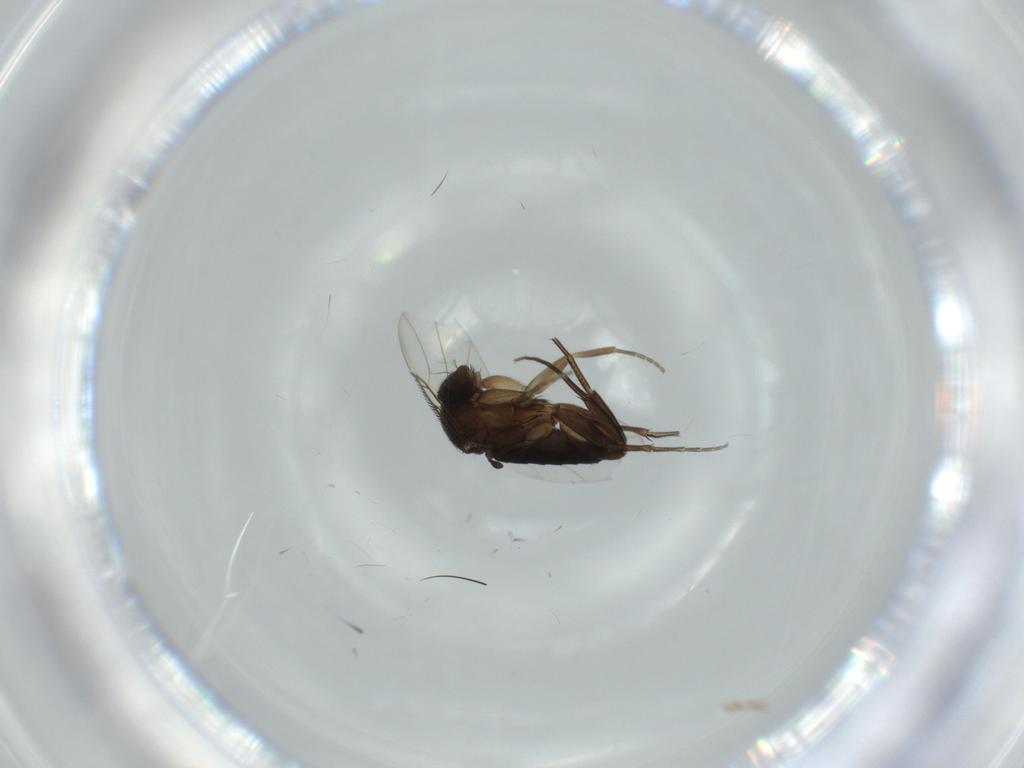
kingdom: Animalia
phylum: Arthropoda
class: Insecta
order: Diptera
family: Phoridae
